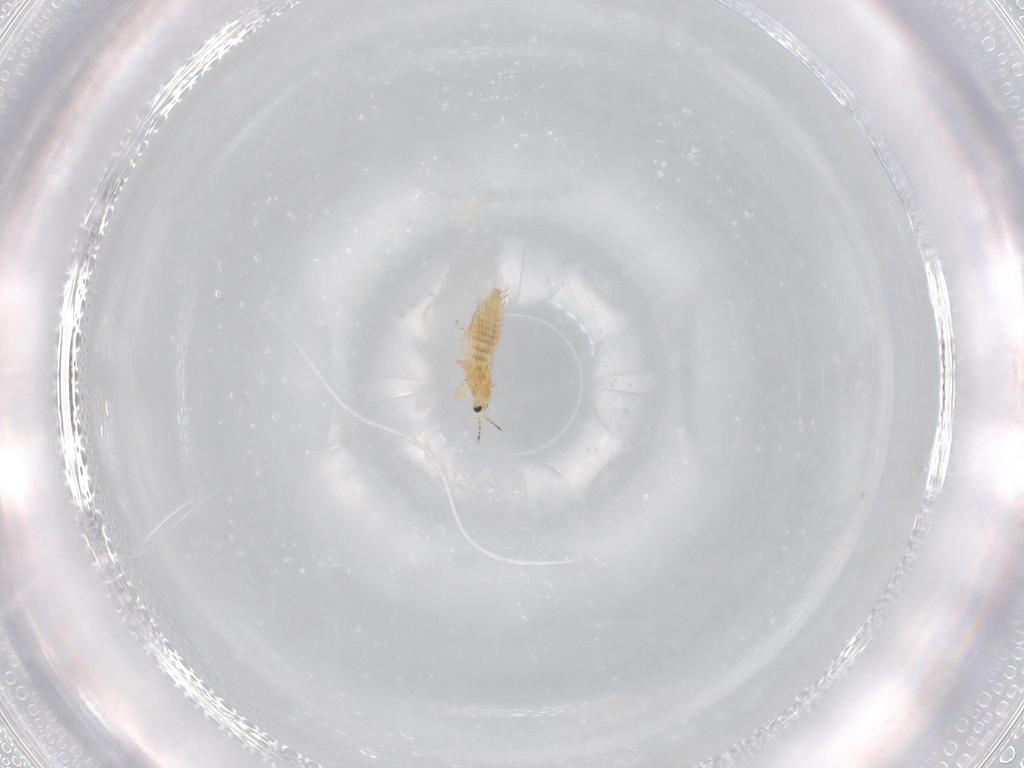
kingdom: Animalia
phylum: Arthropoda
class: Insecta
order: Thysanoptera
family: Thripidae
